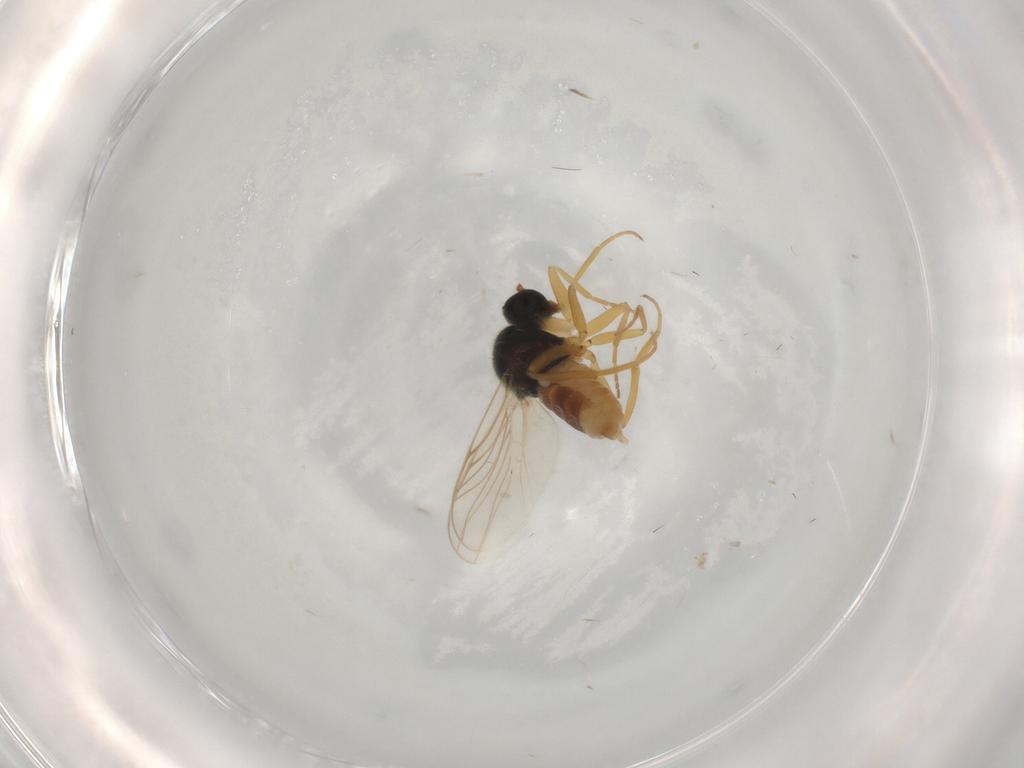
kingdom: Animalia
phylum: Arthropoda
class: Insecta
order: Diptera
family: Hybotidae
